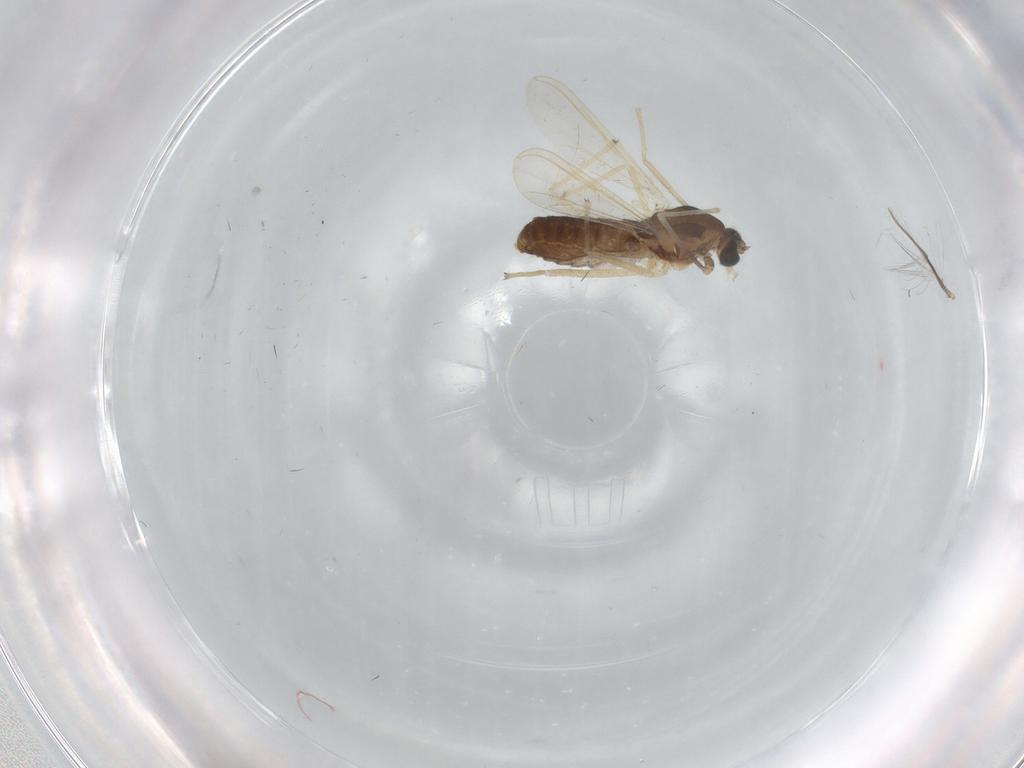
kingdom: Animalia
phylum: Arthropoda
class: Insecta
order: Diptera
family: Chironomidae
